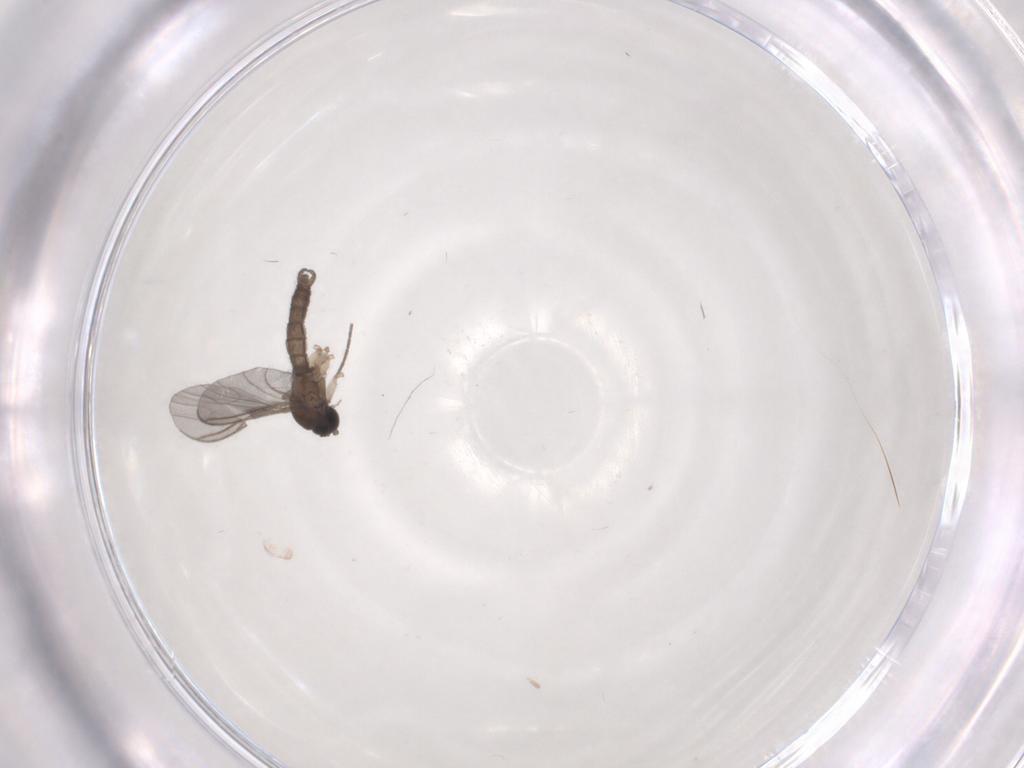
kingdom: Animalia
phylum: Arthropoda
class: Insecta
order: Diptera
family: Sciaridae
